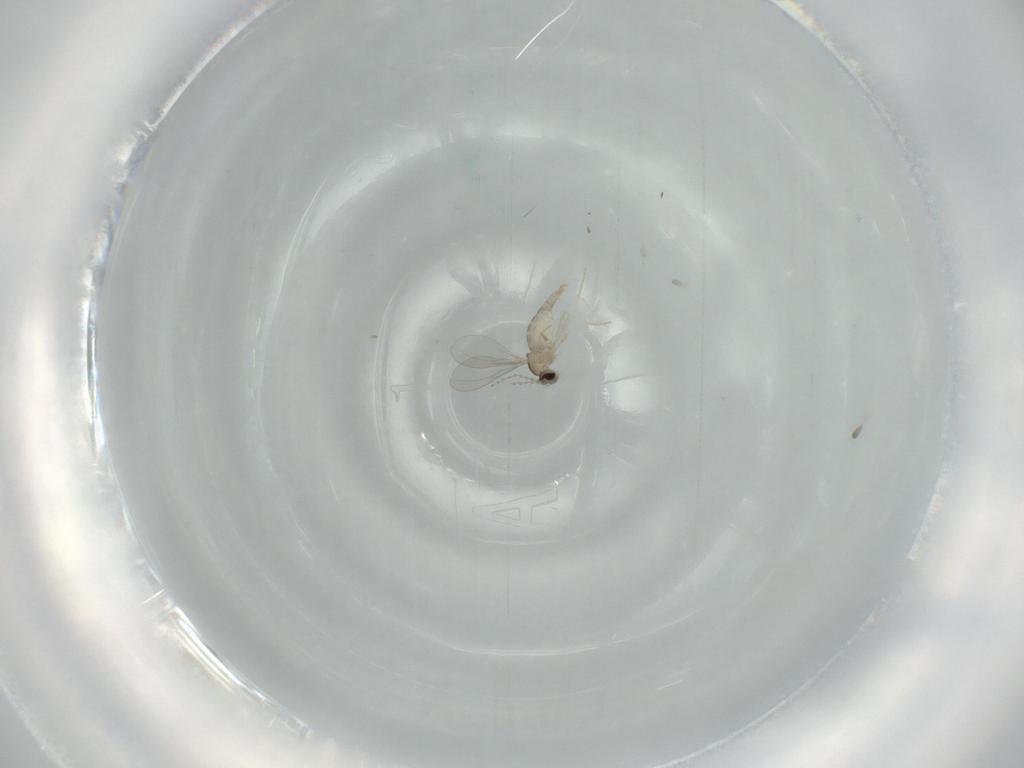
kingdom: Animalia
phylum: Arthropoda
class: Insecta
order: Diptera
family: Cecidomyiidae
